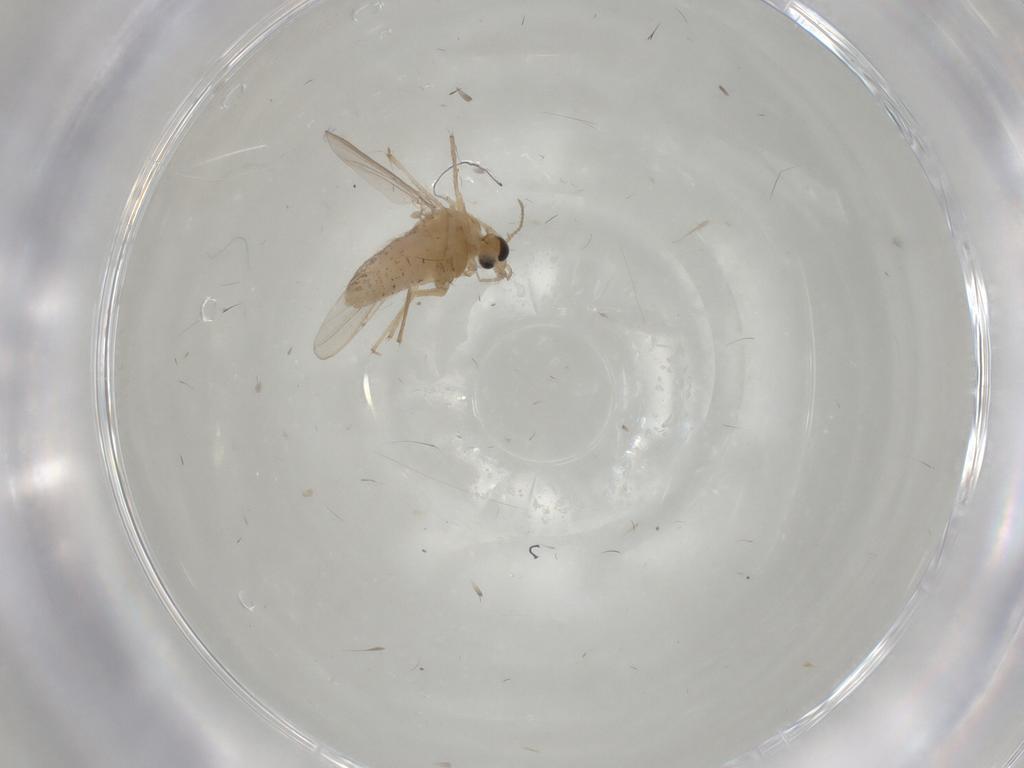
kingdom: Animalia
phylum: Arthropoda
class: Insecta
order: Diptera
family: Chironomidae
